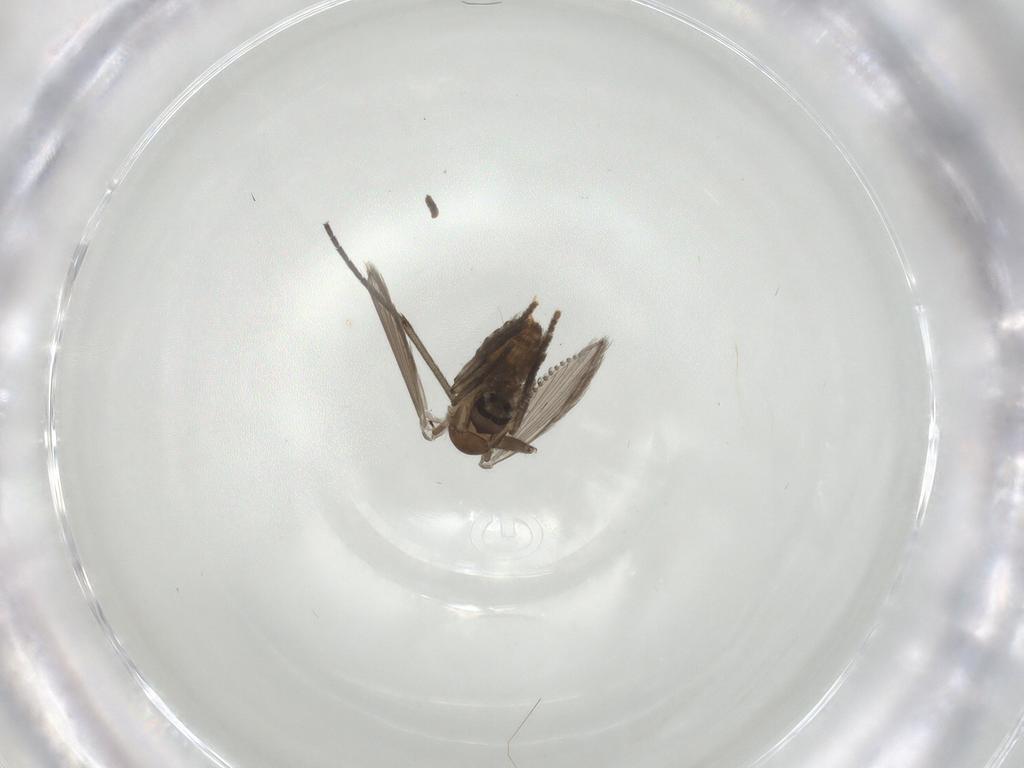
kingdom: Animalia
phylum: Arthropoda
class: Insecta
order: Diptera
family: Sciaridae
